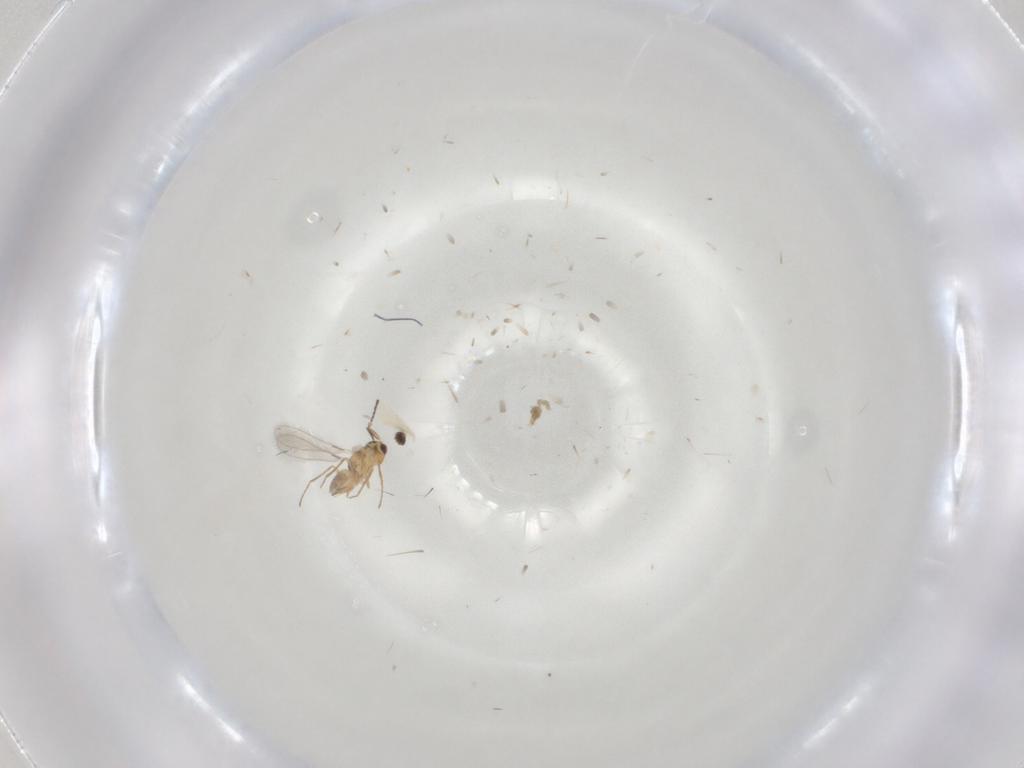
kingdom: Animalia
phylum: Arthropoda
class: Insecta
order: Hymenoptera
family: Mymaridae
